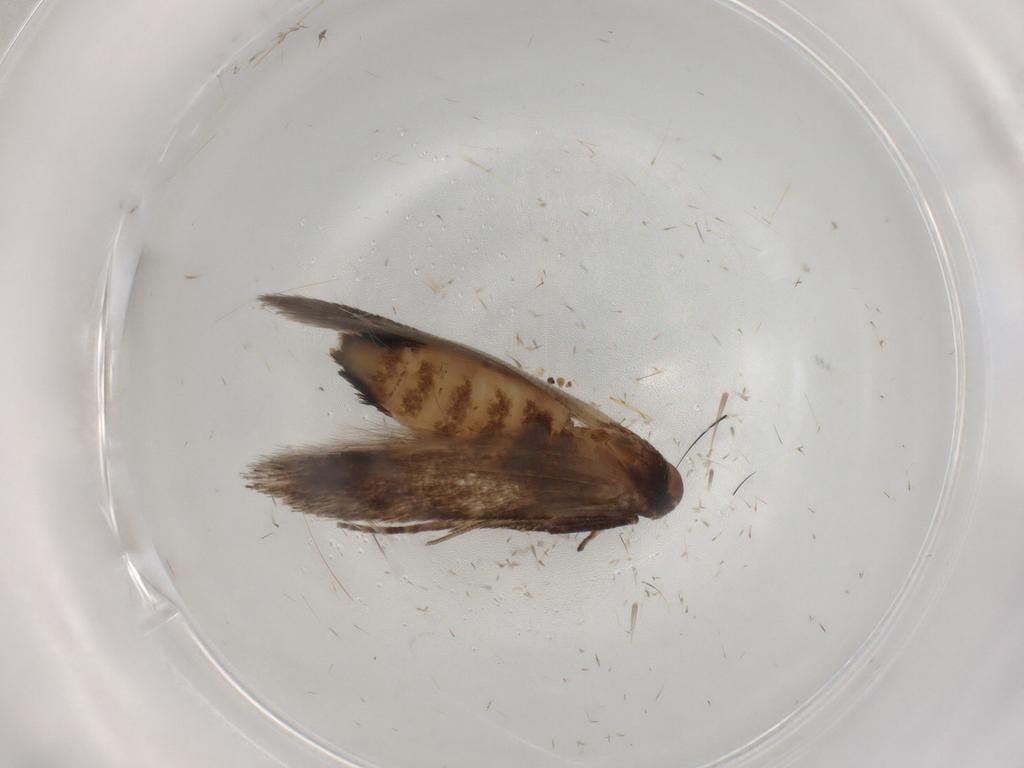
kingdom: Animalia
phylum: Arthropoda
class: Insecta
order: Lepidoptera
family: Cosmopterigidae
